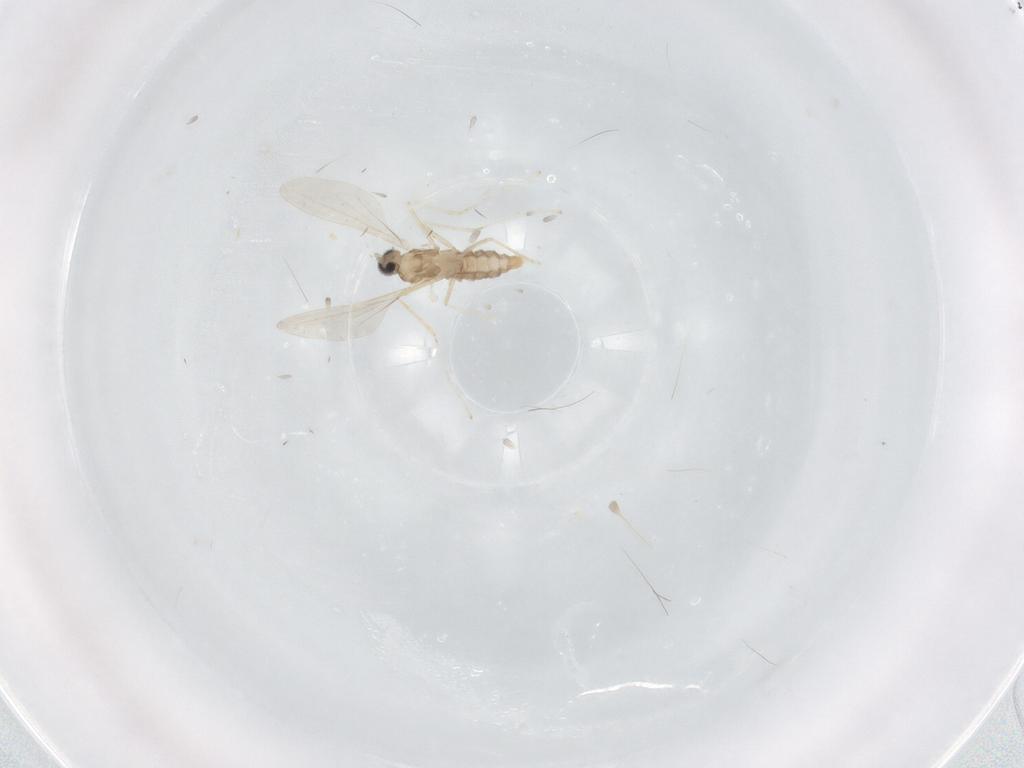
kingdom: Animalia
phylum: Arthropoda
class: Insecta
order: Diptera
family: Cecidomyiidae
